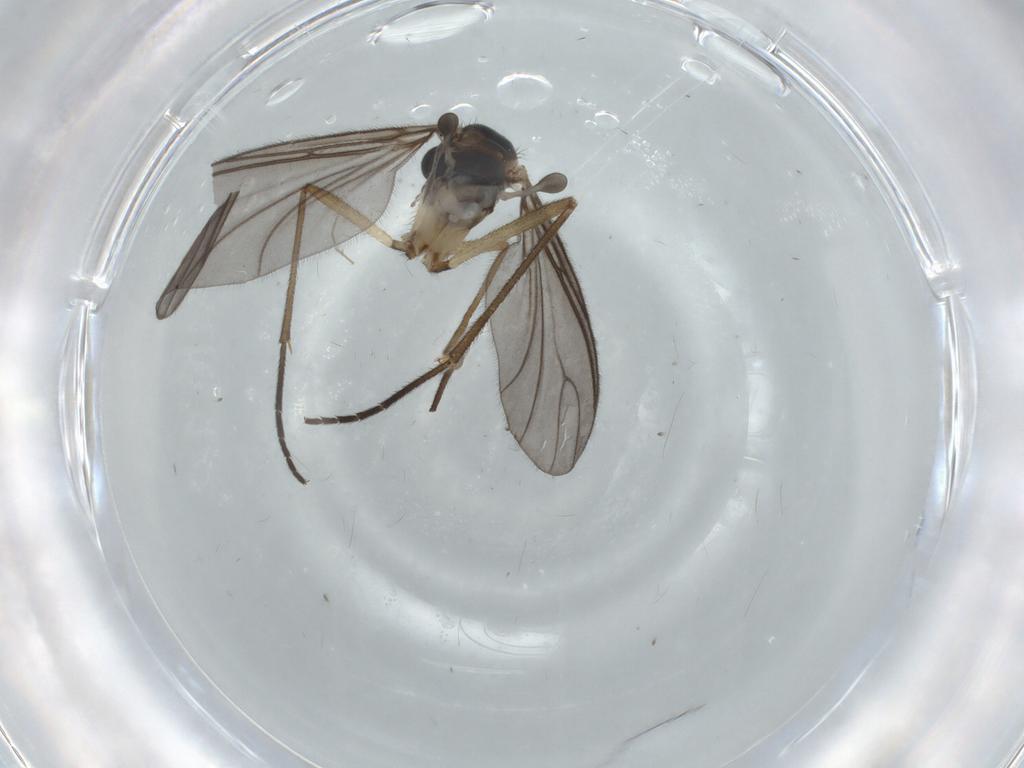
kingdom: Animalia
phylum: Arthropoda
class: Insecta
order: Diptera
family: Sciaridae
